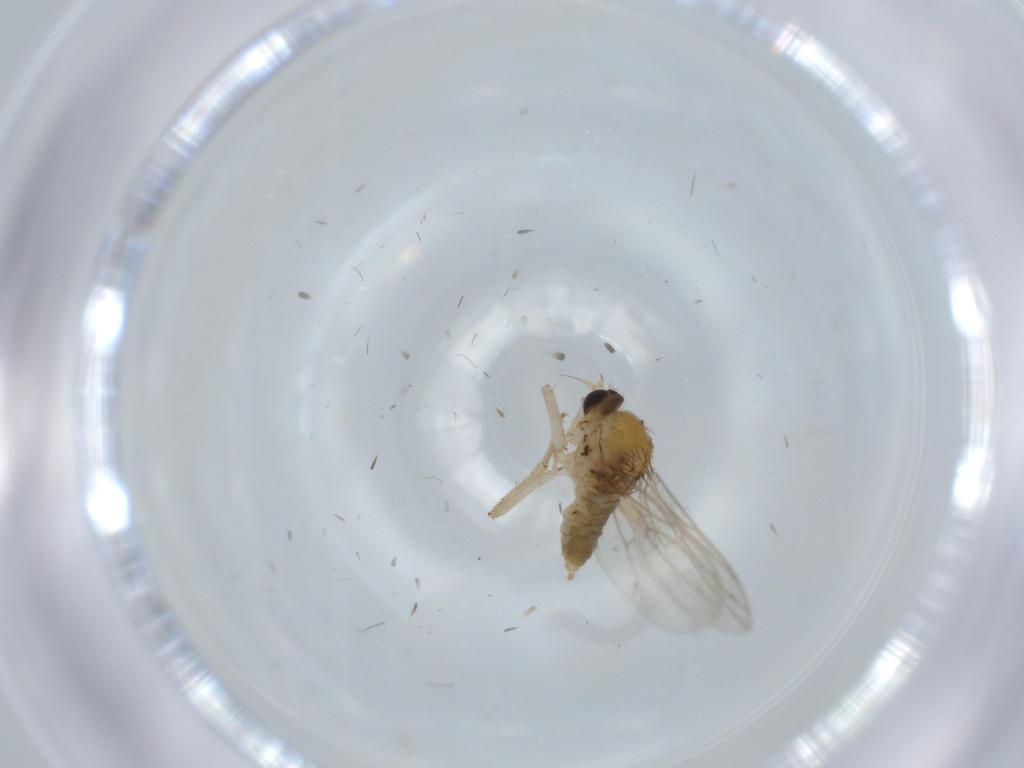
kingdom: Animalia
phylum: Arthropoda
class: Insecta
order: Diptera
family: Hybotidae
